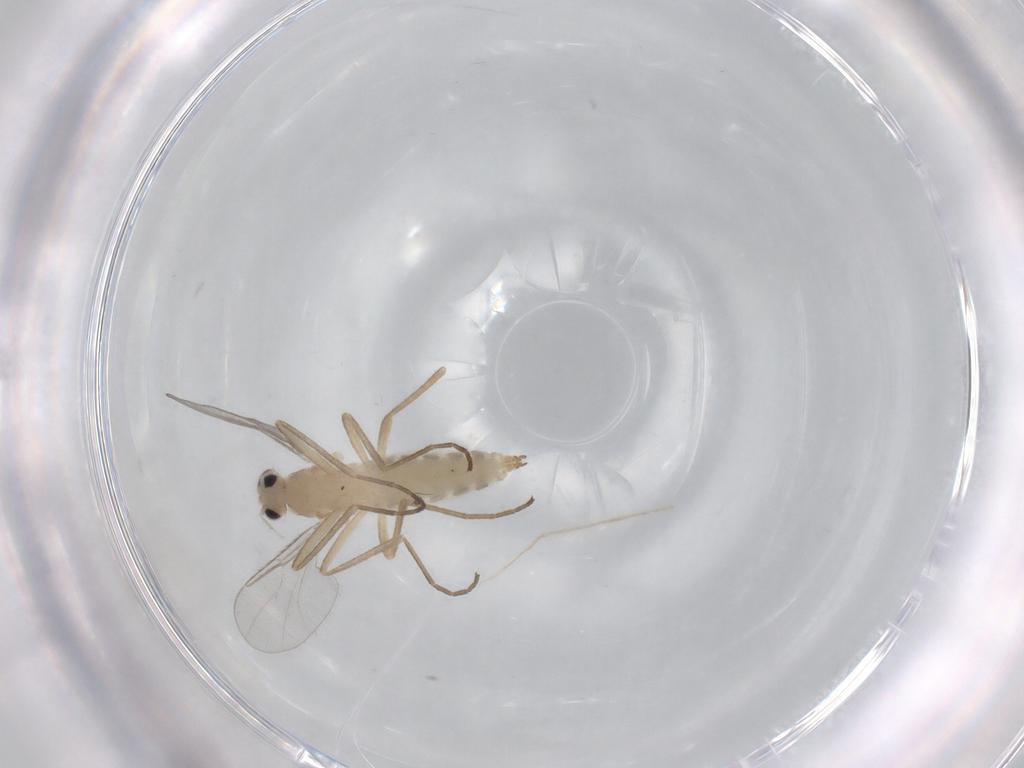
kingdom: Animalia
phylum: Arthropoda
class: Insecta
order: Diptera
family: Cecidomyiidae
